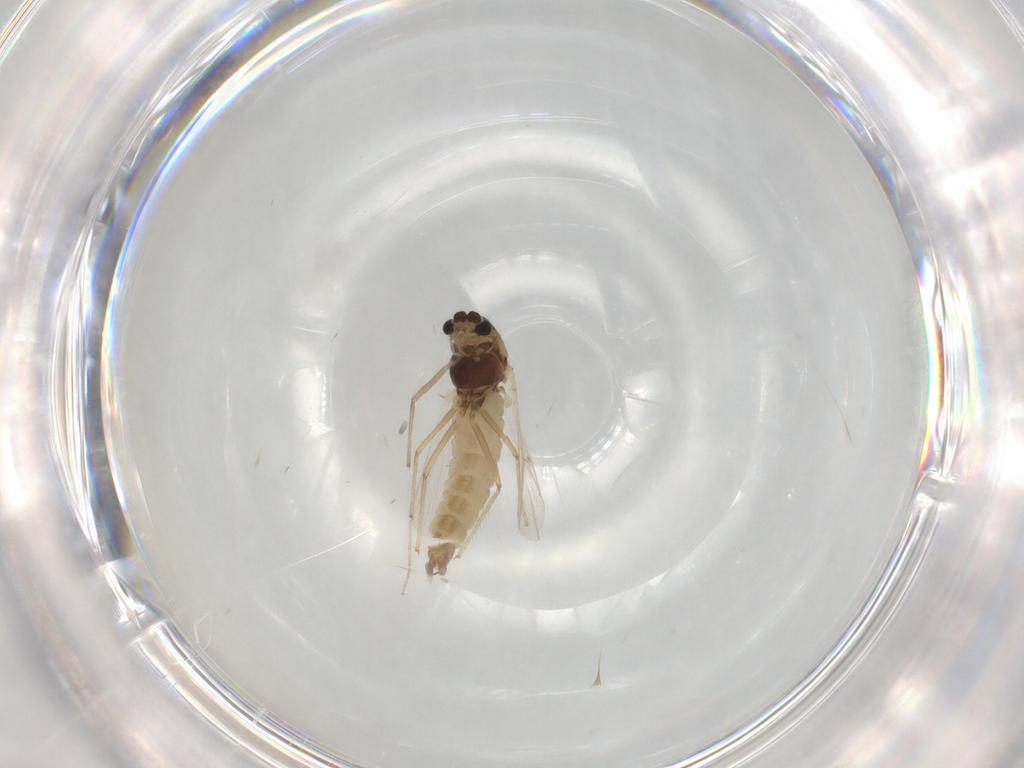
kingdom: Animalia
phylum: Arthropoda
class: Insecta
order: Diptera
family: Chironomidae
